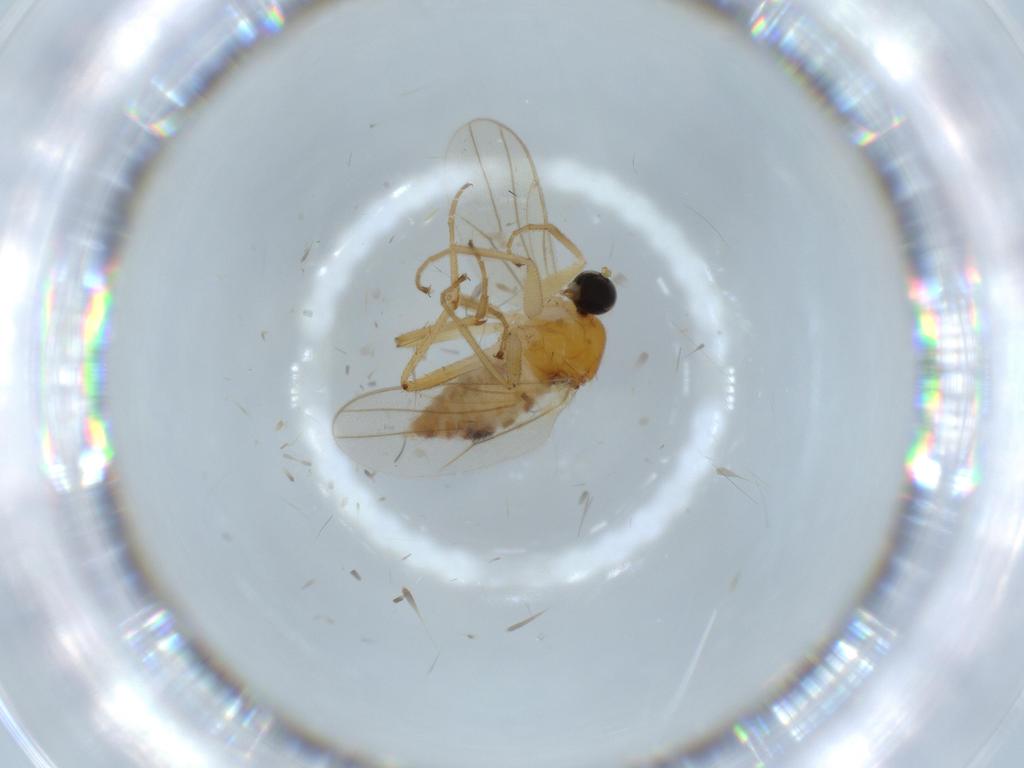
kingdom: Animalia
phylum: Arthropoda
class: Insecta
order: Diptera
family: Hybotidae
